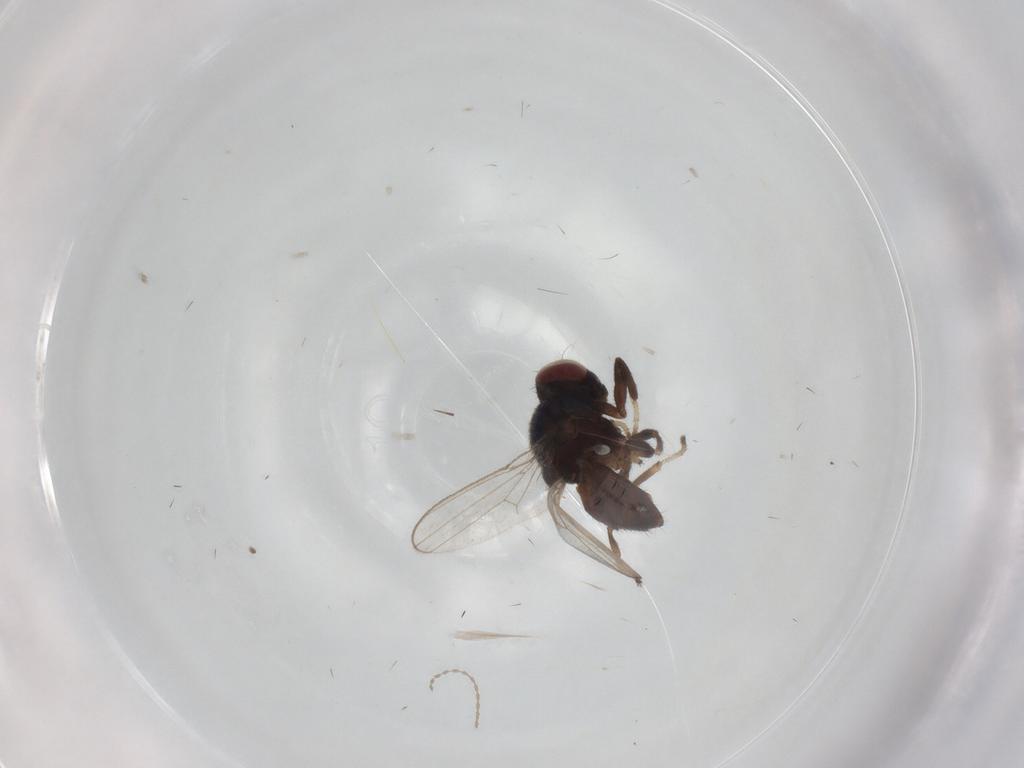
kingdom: Animalia
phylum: Arthropoda
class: Insecta
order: Diptera
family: Ephydridae
